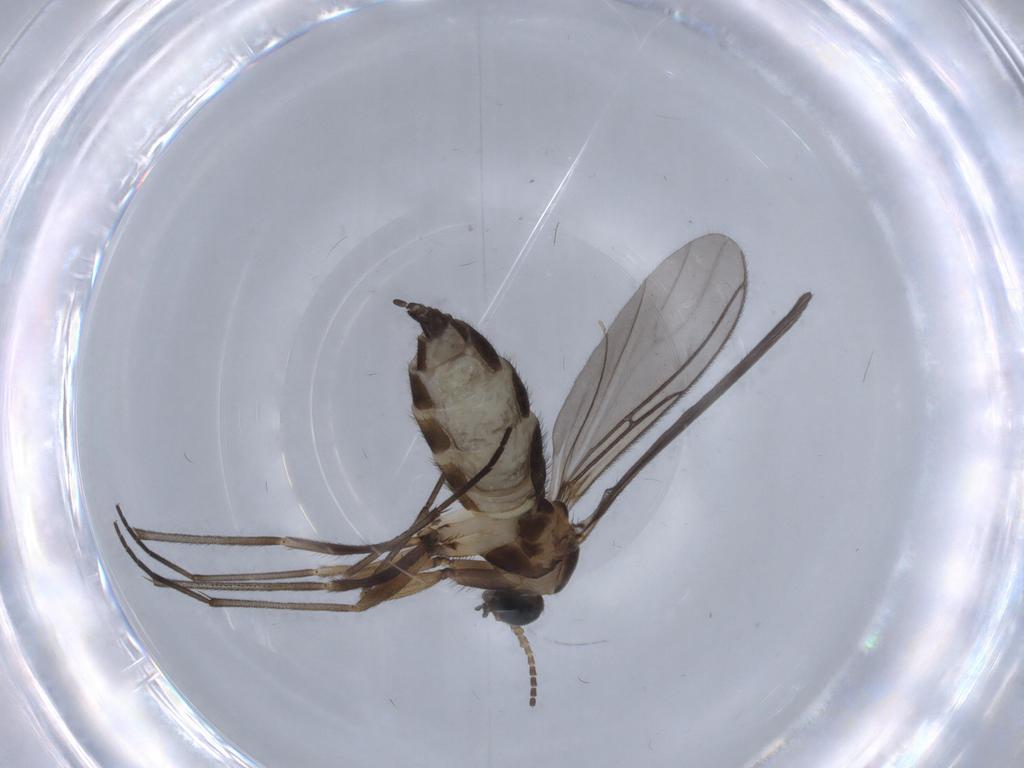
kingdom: Animalia
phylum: Arthropoda
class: Insecta
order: Diptera
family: Sciaridae
